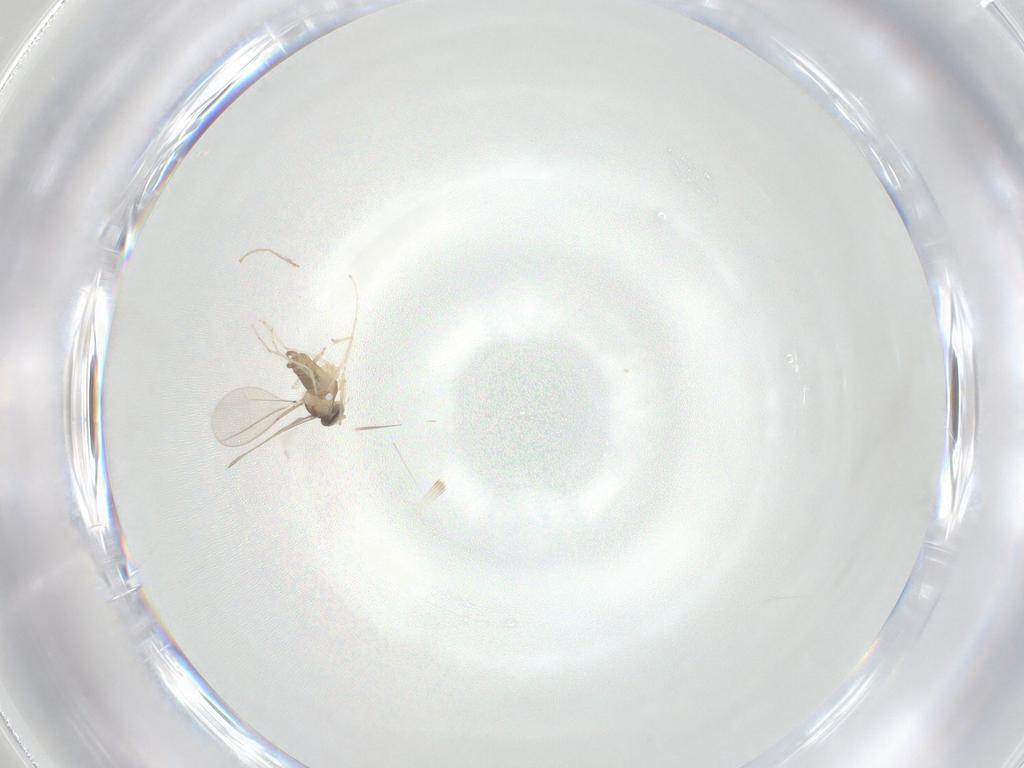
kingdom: Animalia
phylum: Arthropoda
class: Insecta
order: Diptera
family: Cecidomyiidae
